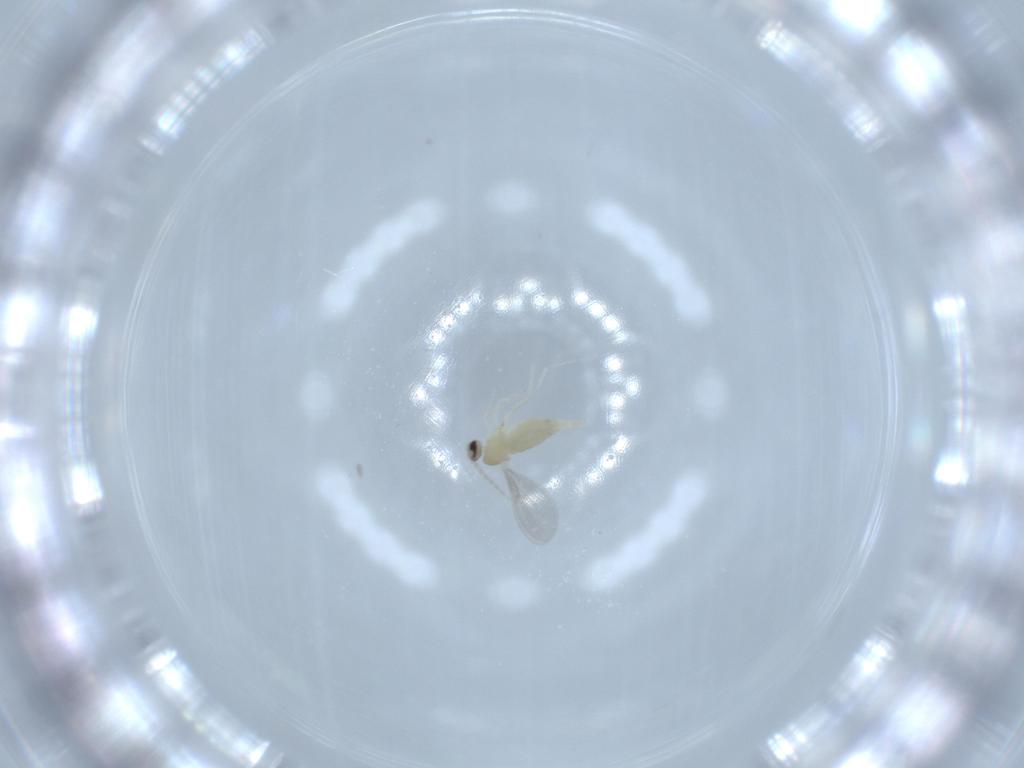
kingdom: Animalia
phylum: Arthropoda
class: Insecta
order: Diptera
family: Cecidomyiidae
